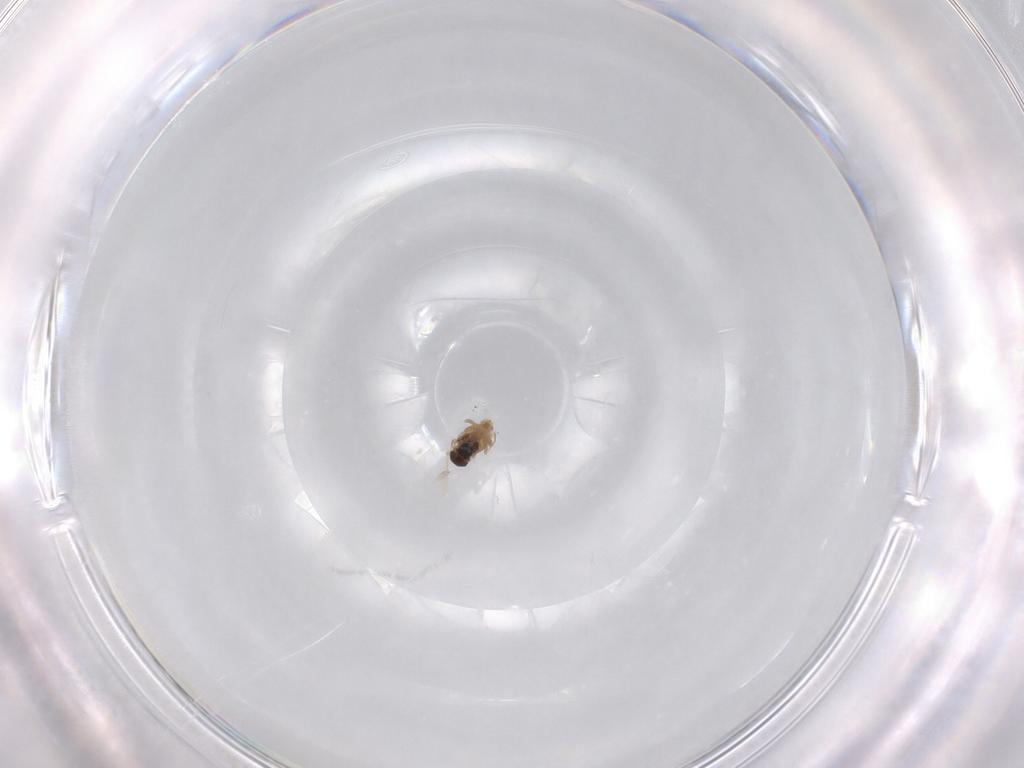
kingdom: Animalia
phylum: Arthropoda
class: Insecta
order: Diptera
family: Cecidomyiidae
